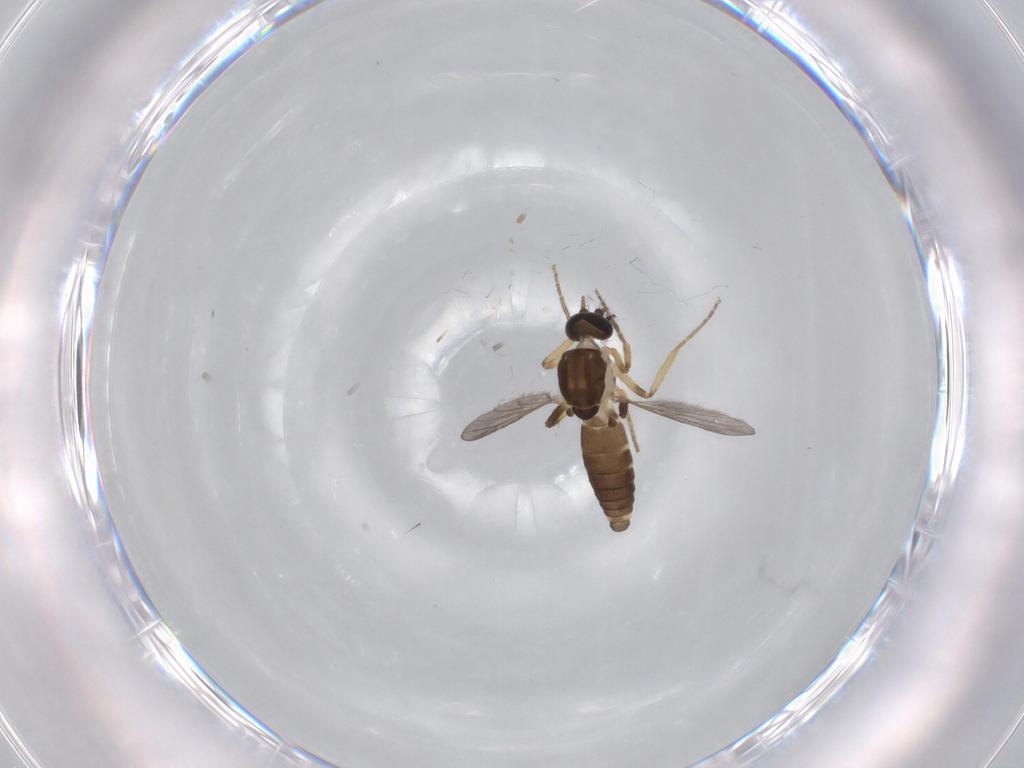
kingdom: Animalia
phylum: Arthropoda
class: Insecta
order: Diptera
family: Ceratopogonidae
